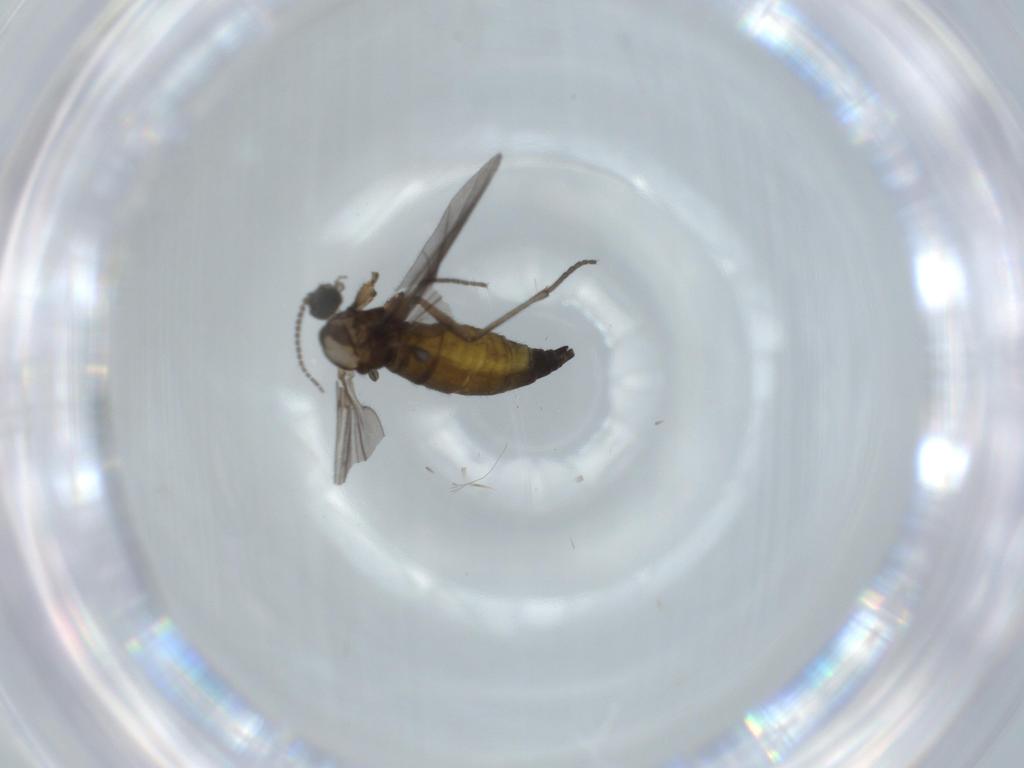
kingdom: Animalia
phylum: Arthropoda
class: Insecta
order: Diptera
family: Sciaridae
